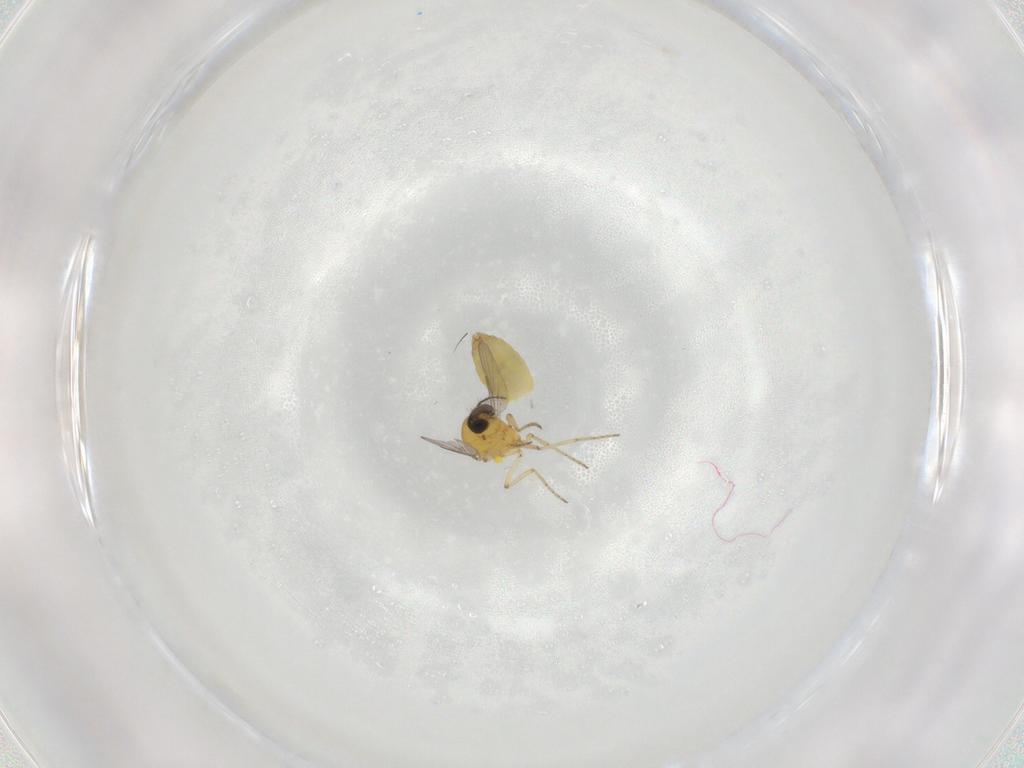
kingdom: Animalia
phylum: Arthropoda
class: Insecta
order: Diptera
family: Ceratopogonidae
